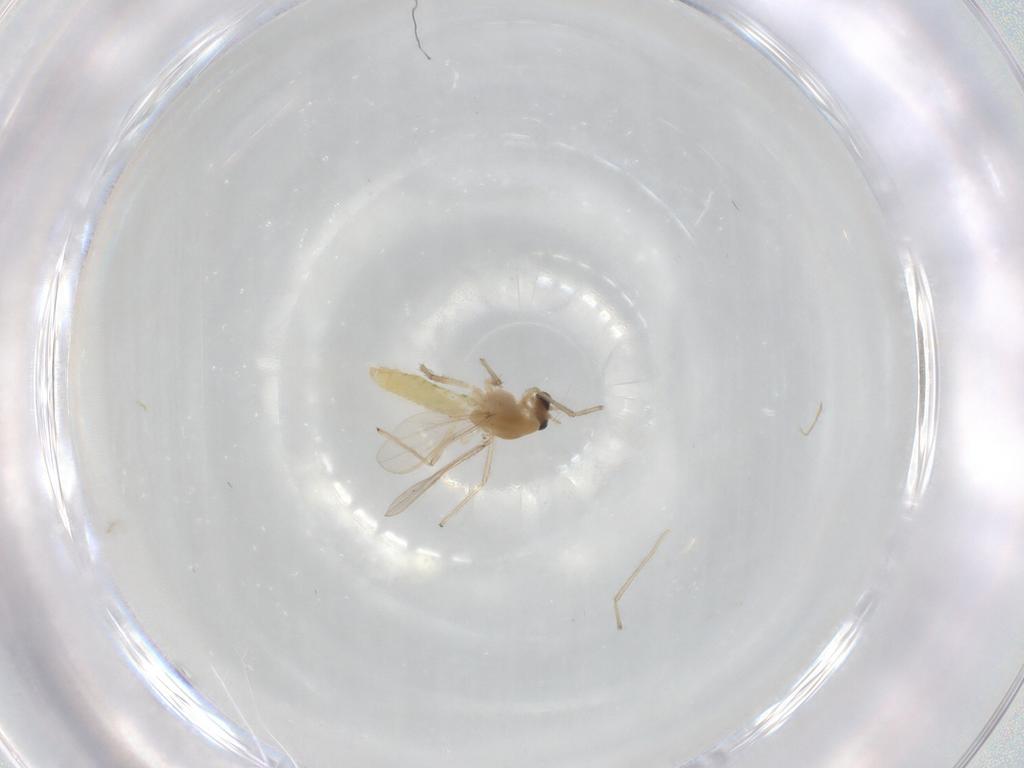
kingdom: Animalia
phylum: Arthropoda
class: Insecta
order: Diptera
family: Chironomidae
